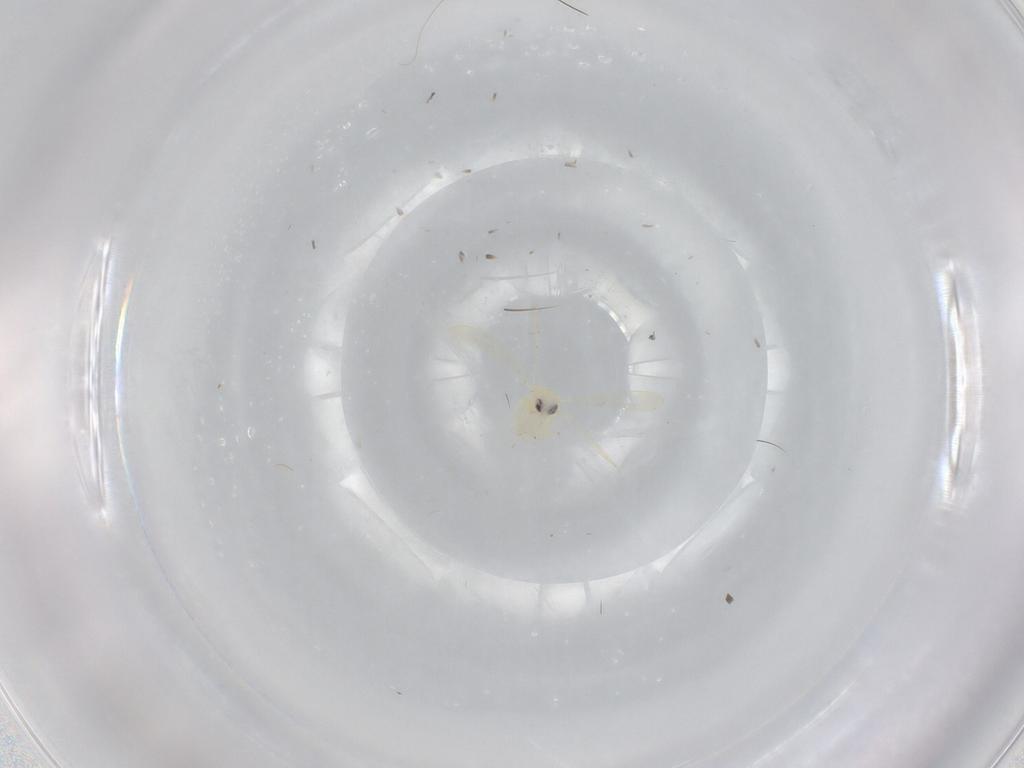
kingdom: Animalia
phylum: Arthropoda
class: Insecta
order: Hemiptera
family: Aleyrodidae
